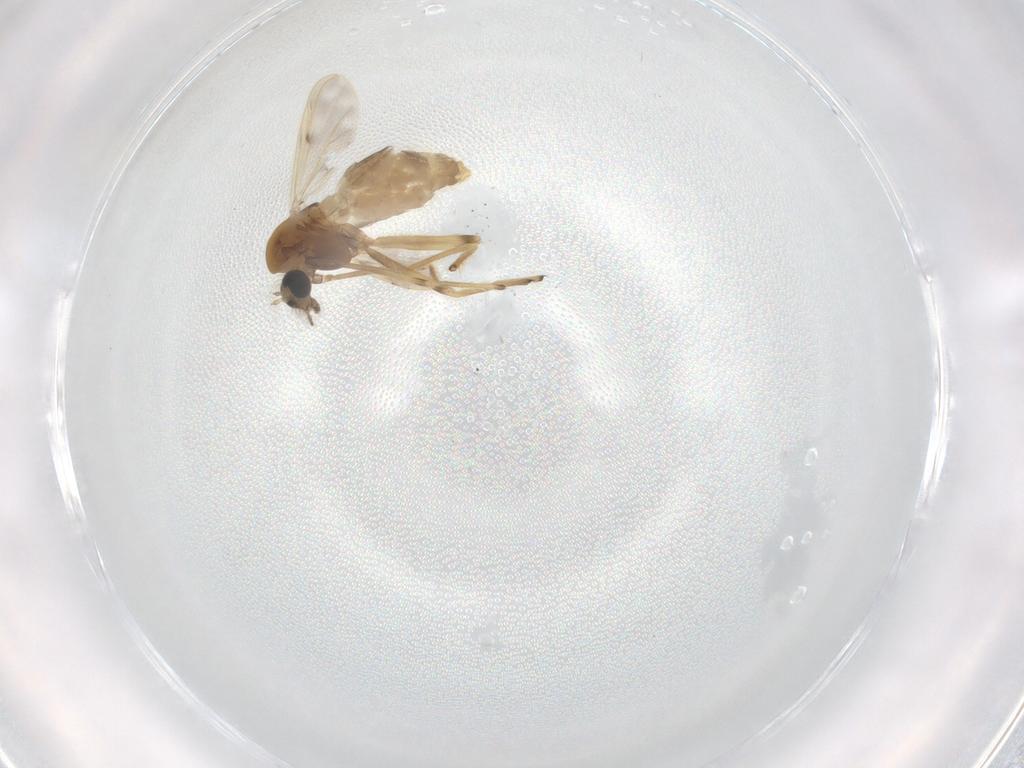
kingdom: Animalia
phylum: Arthropoda
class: Insecta
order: Diptera
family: Chironomidae
